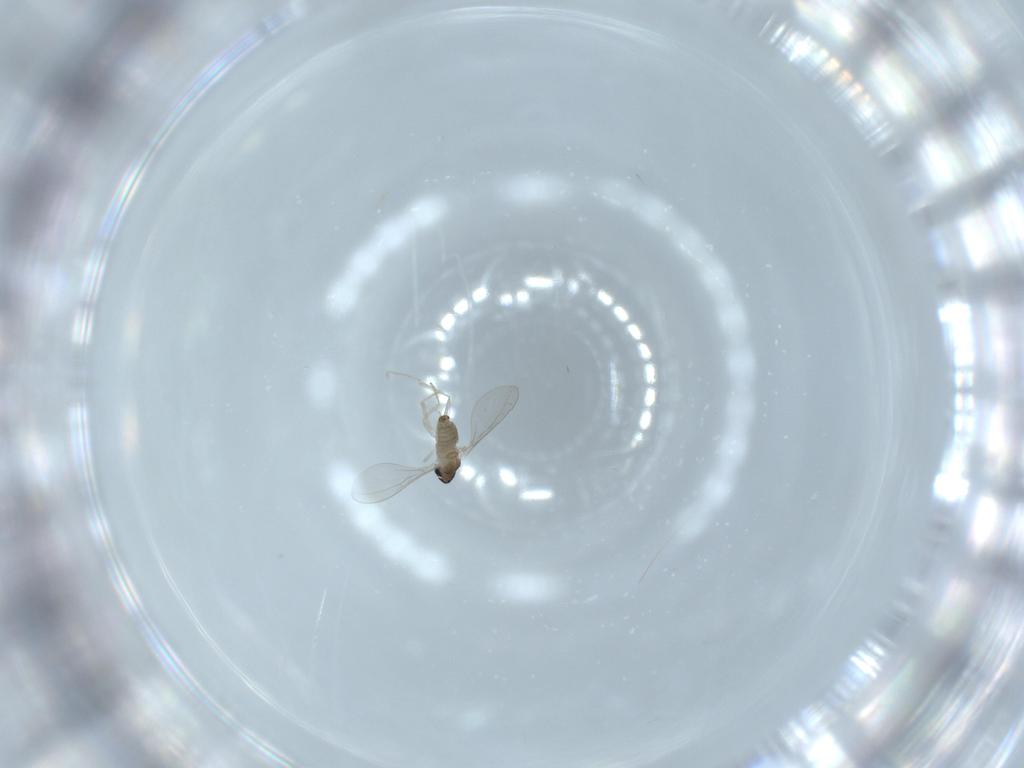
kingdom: Animalia
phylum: Arthropoda
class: Insecta
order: Diptera
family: Cecidomyiidae
